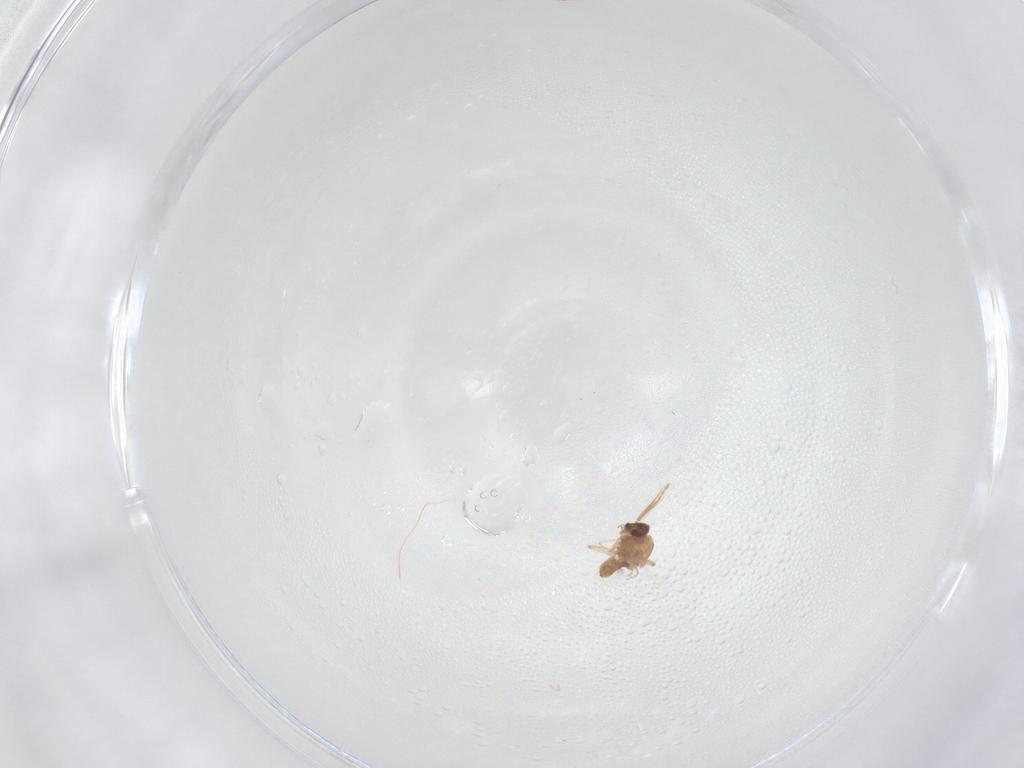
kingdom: Animalia
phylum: Arthropoda
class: Insecta
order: Diptera
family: Ceratopogonidae
